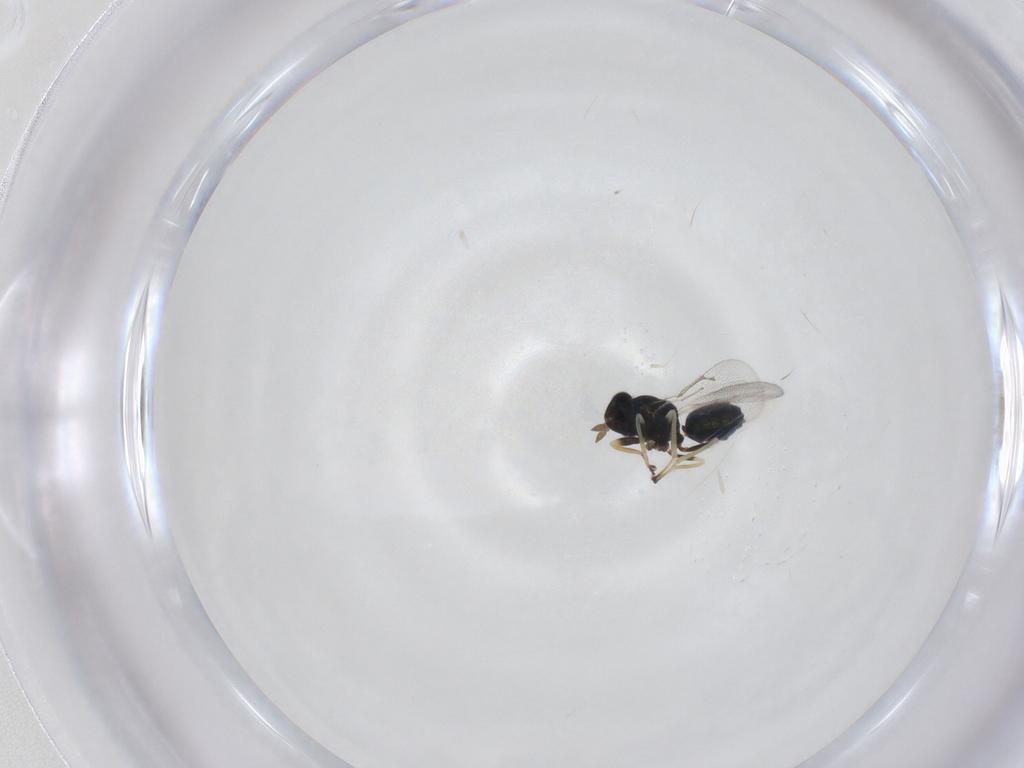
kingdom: Animalia
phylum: Arthropoda
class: Insecta
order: Hymenoptera
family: Eulophidae
